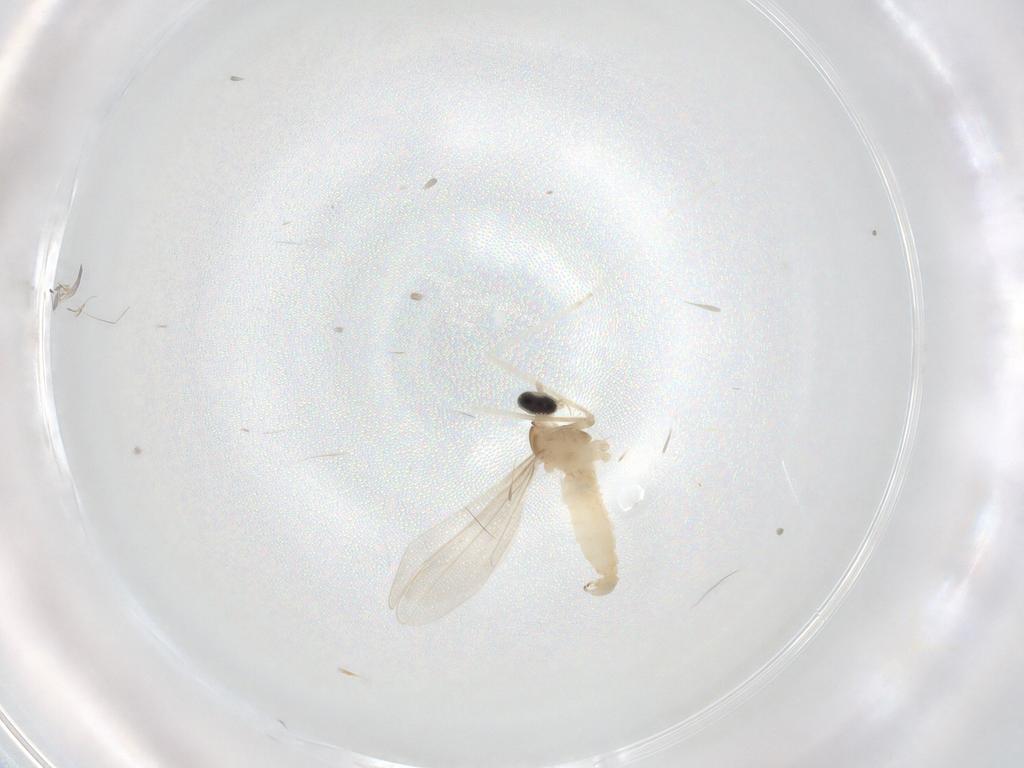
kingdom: Animalia
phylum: Arthropoda
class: Insecta
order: Diptera
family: Cecidomyiidae
